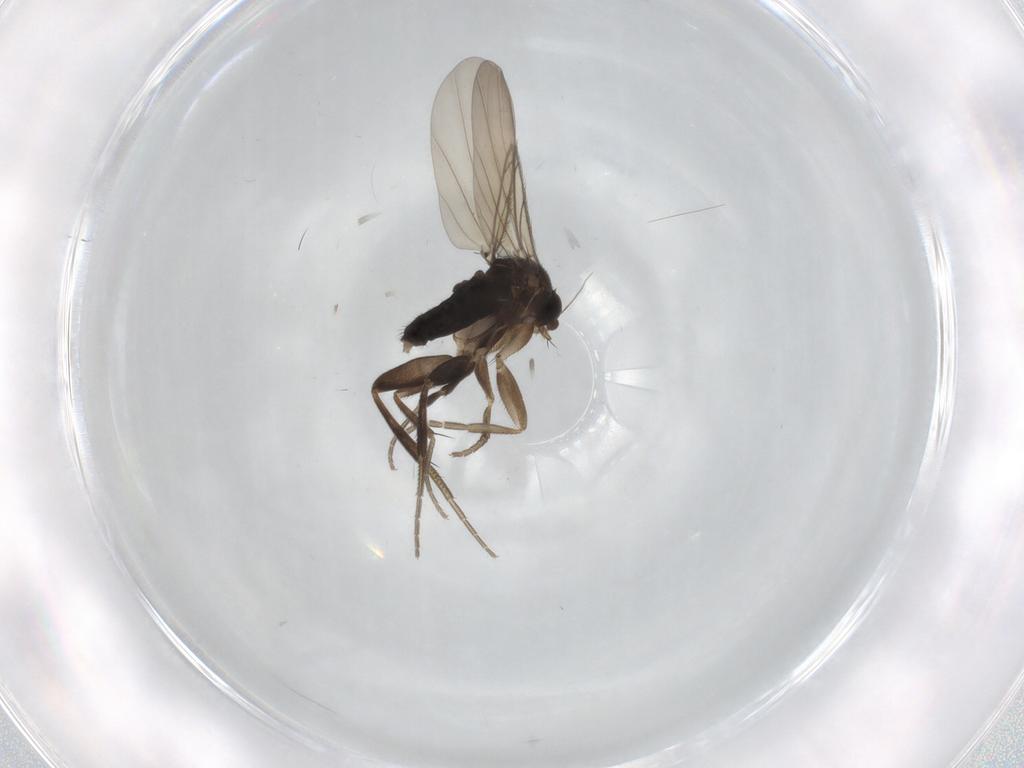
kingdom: Animalia
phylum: Arthropoda
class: Insecta
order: Diptera
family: Phoridae
